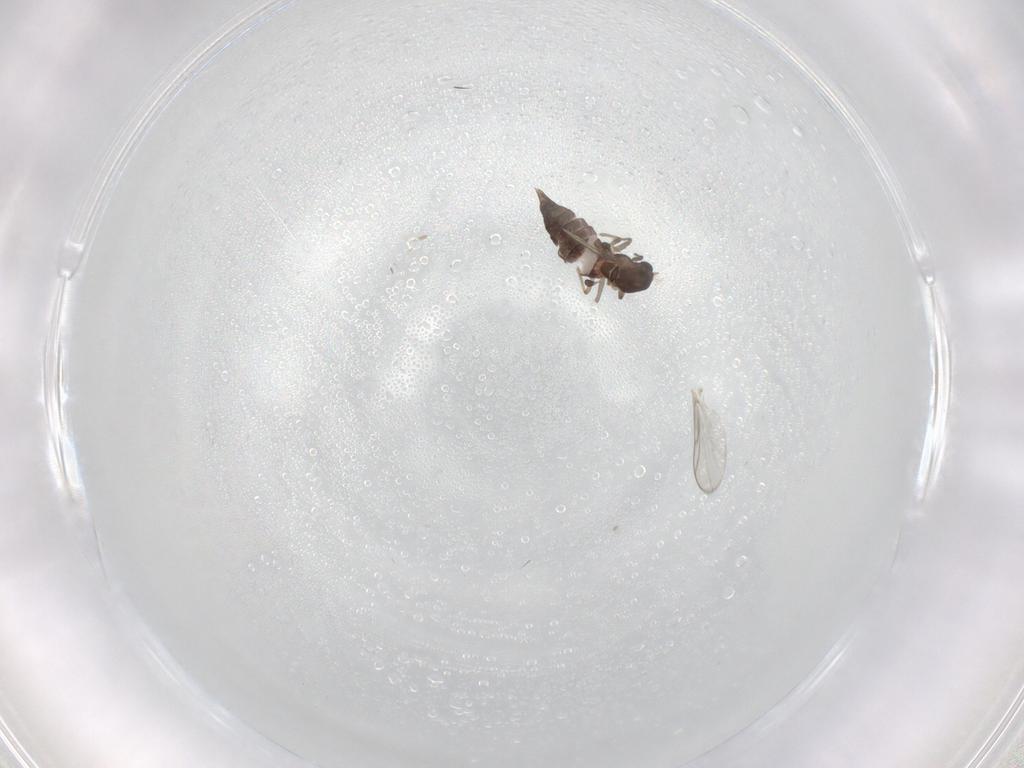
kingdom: Animalia
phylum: Arthropoda
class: Insecta
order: Diptera
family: Chironomidae
